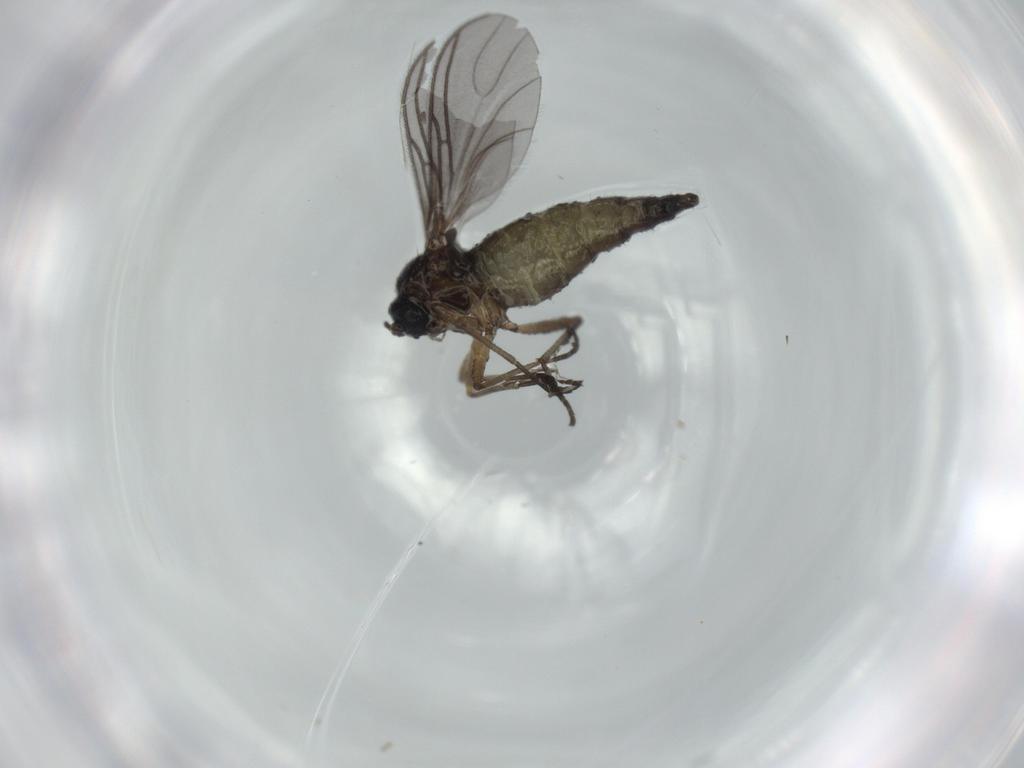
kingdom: Animalia
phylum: Arthropoda
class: Insecta
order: Diptera
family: Sciaridae
